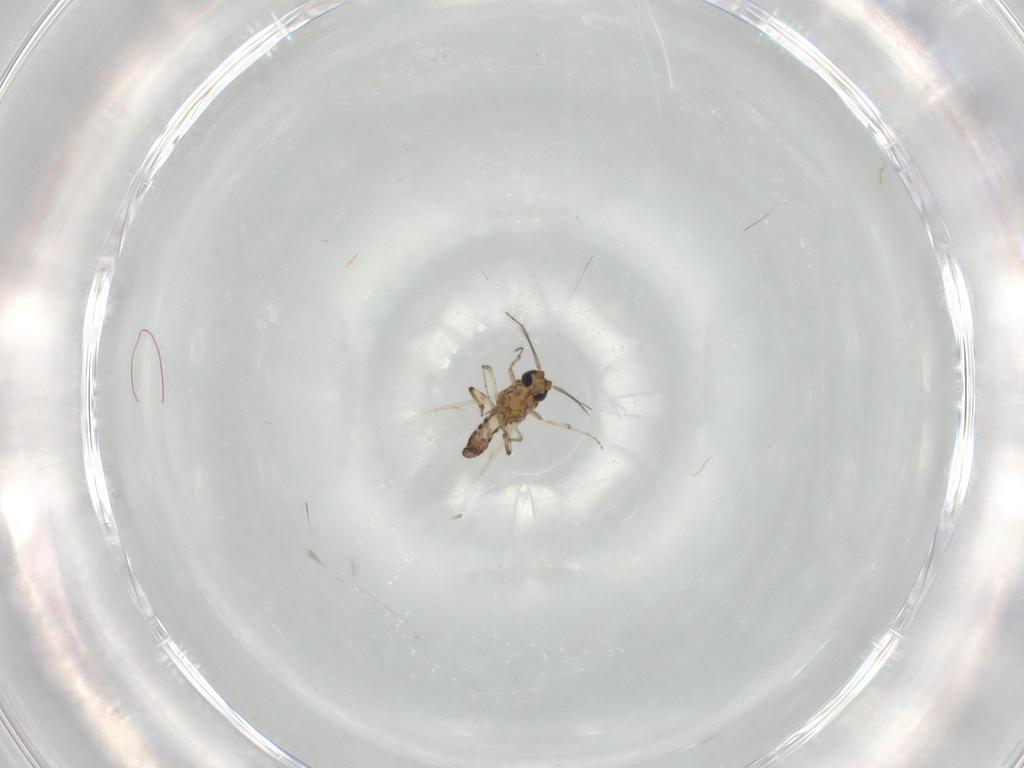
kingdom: Animalia
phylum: Arthropoda
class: Insecta
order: Diptera
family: Ceratopogonidae
